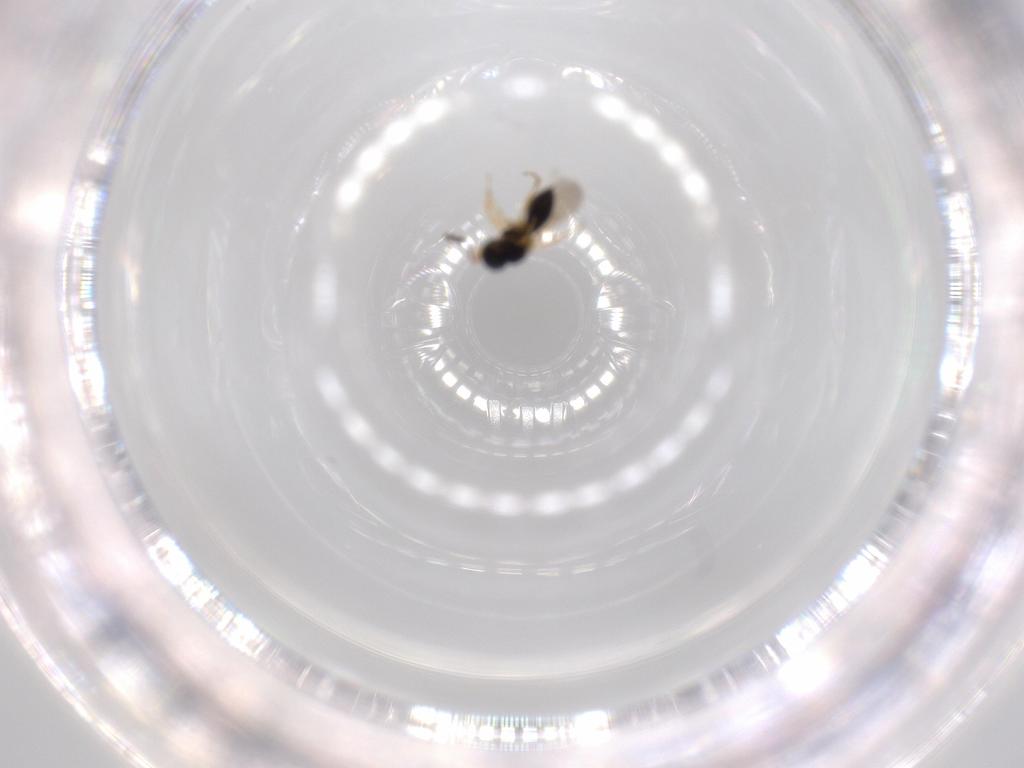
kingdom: Animalia
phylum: Arthropoda
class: Insecta
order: Hymenoptera
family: Scelionidae
